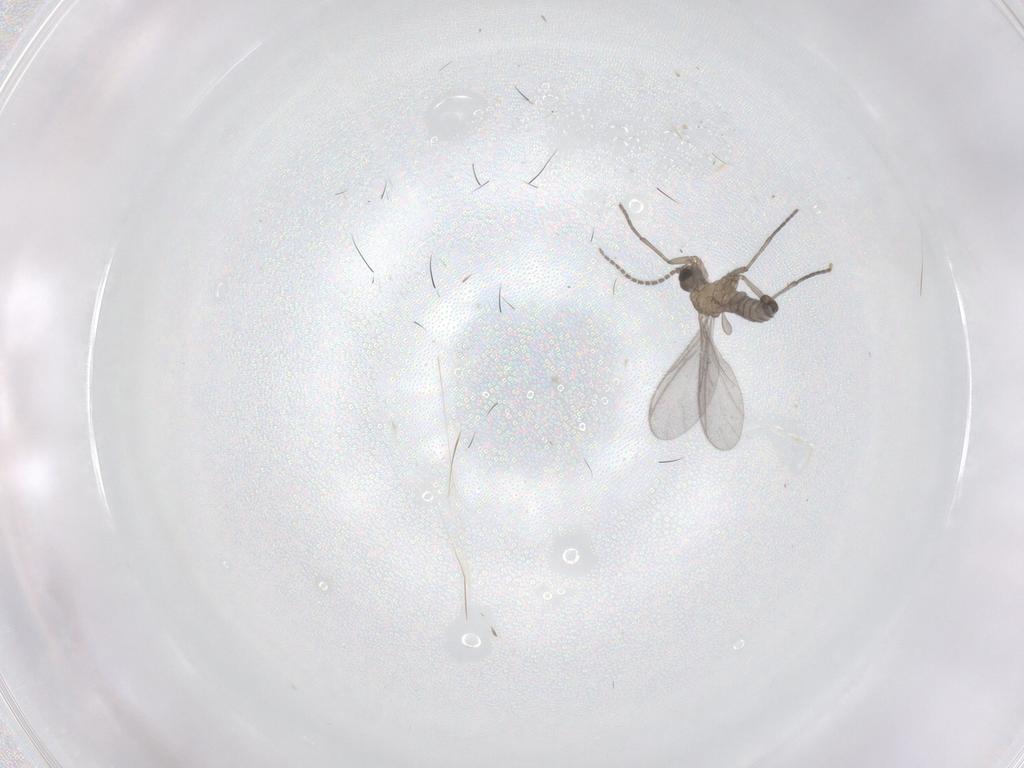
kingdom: Animalia
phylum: Arthropoda
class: Insecta
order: Diptera
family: Sciaridae
